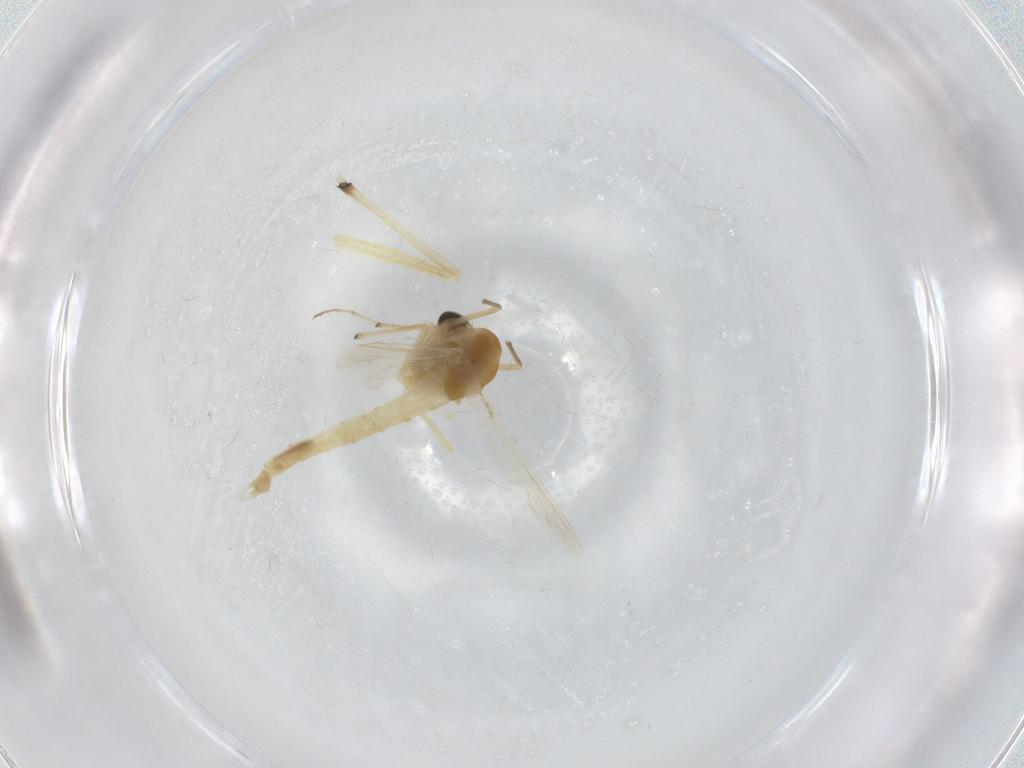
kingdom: Animalia
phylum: Arthropoda
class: Insecta
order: Diptera
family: Chironomidae
